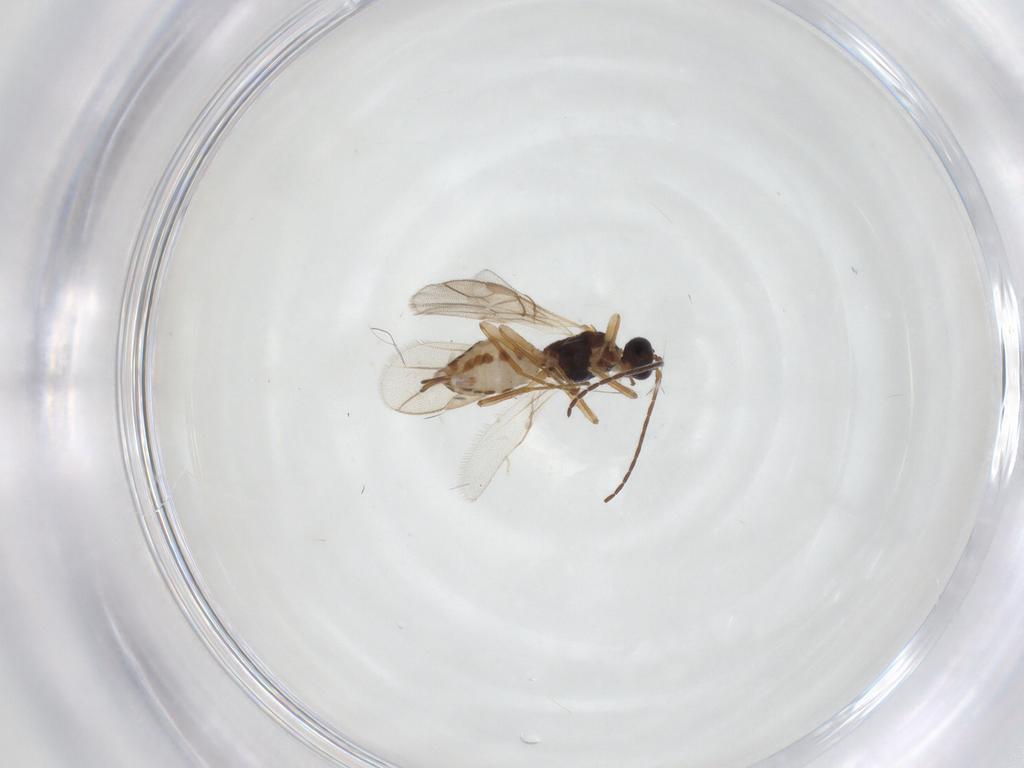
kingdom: Animalia
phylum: Arthropoda
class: Insecta
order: Hymenoptera
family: Braconidae
